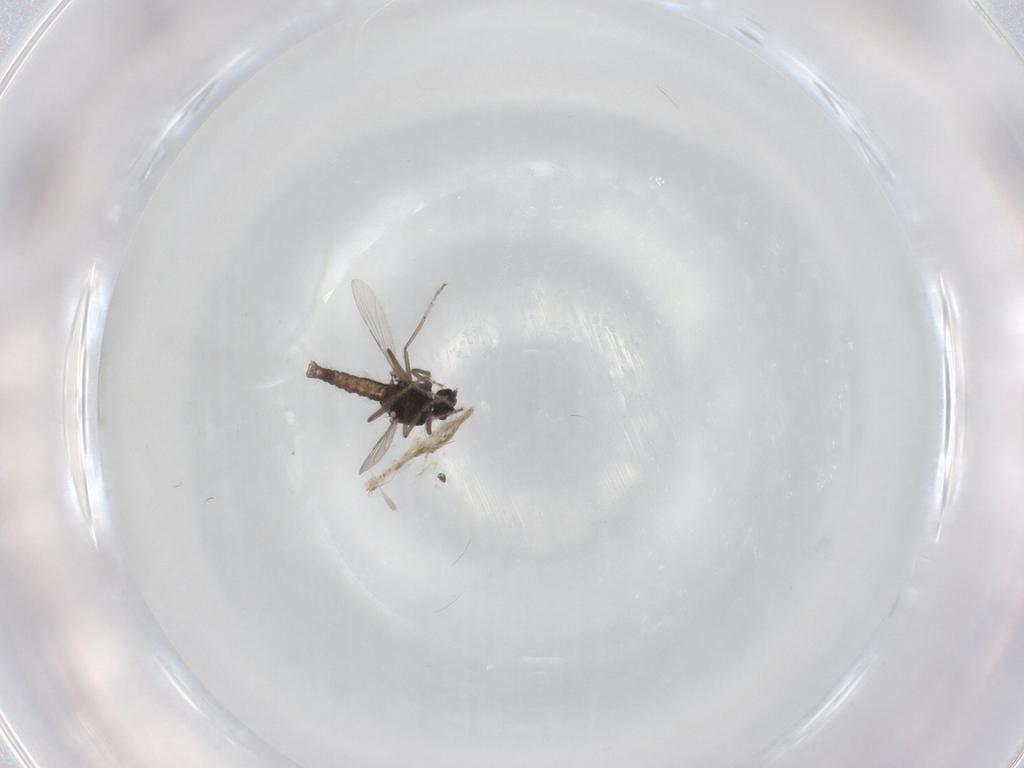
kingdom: Animalia
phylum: Arthropoda
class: Insecta
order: Diptera
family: Ceratopogonidae
